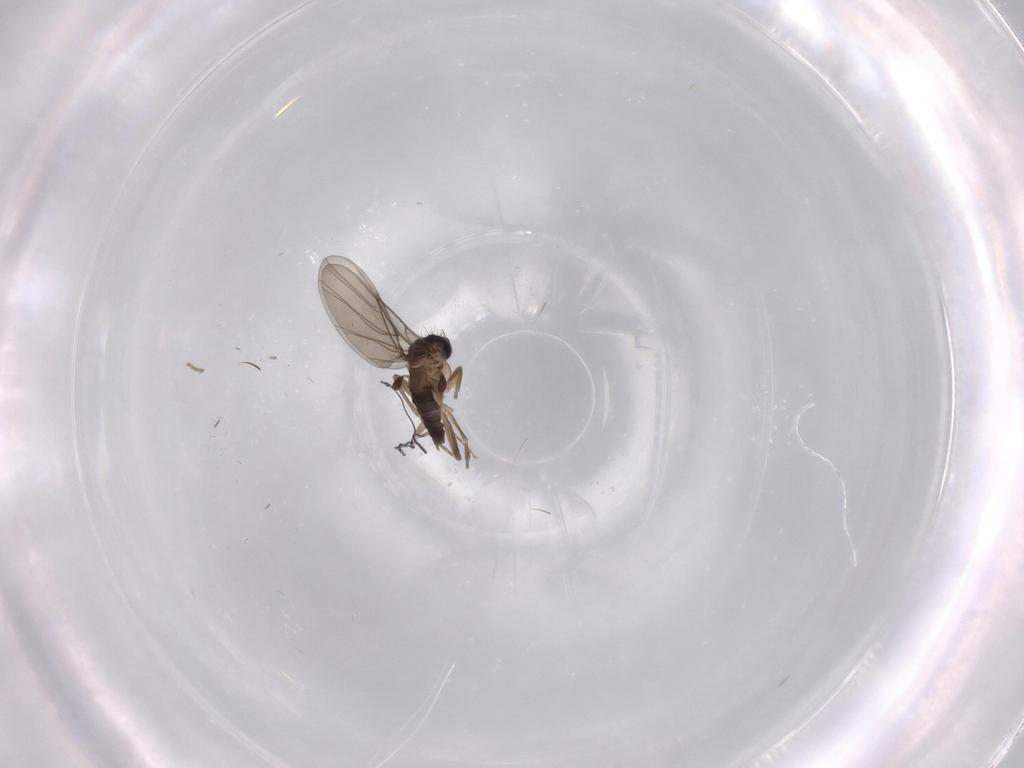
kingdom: Animalia
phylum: Arthropoda
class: Insecta
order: Diptera
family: Phoridae
